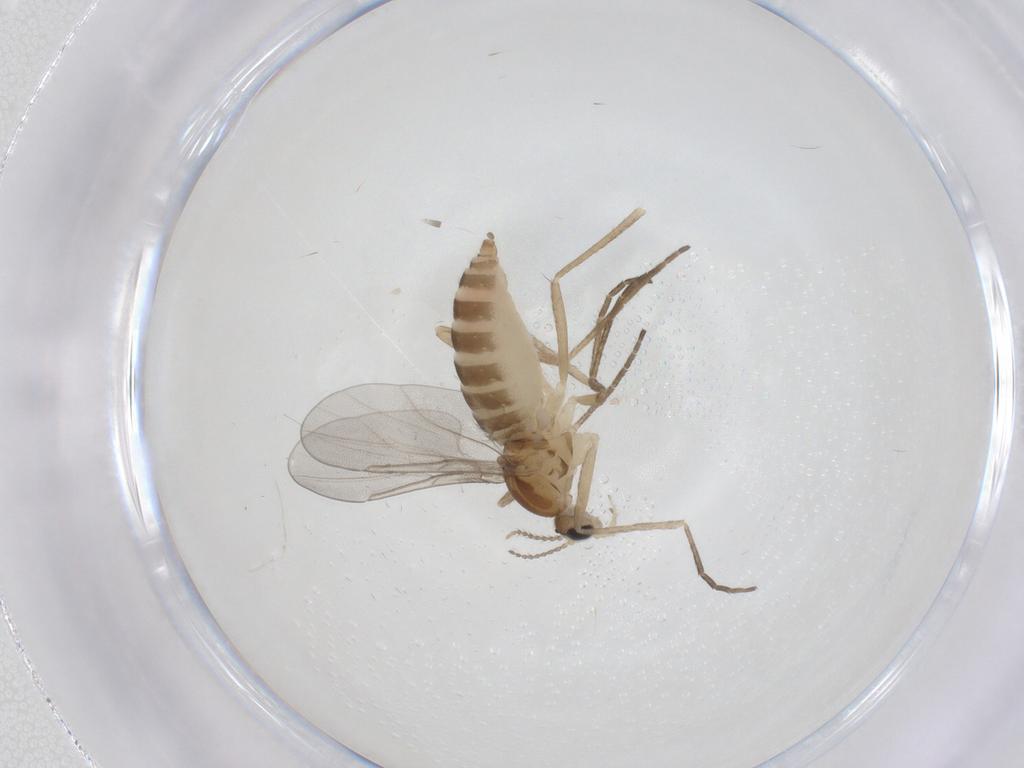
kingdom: Animalia
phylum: Arthropoda
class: Insecta
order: Diptera
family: Cecidomyiidae
